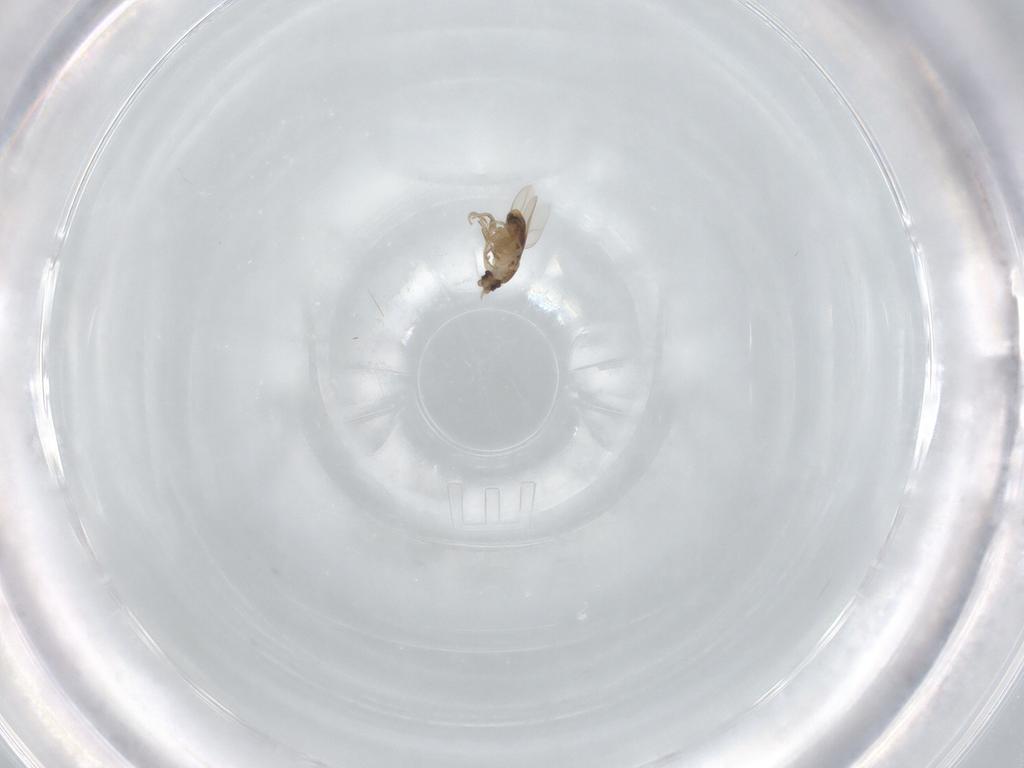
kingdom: Animalia
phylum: Arthropoda
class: Insecta
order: Diptera
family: Phoridae
